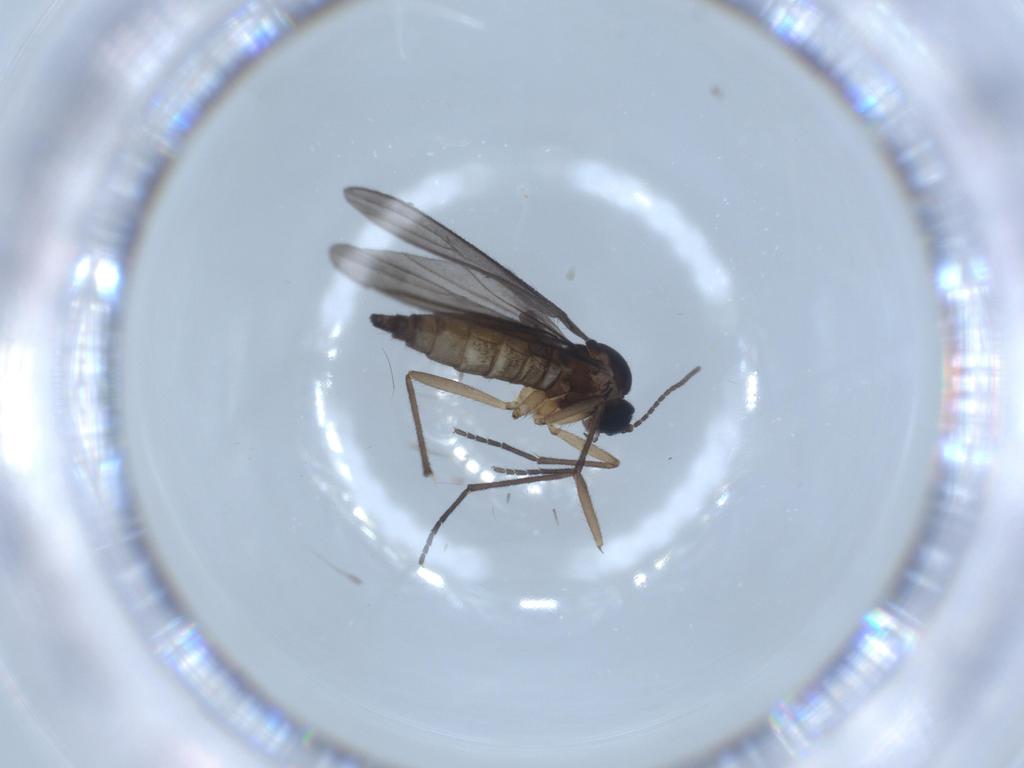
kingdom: Animalia
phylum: Arthropoda
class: Insecta
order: Diptera
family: Sciaridae
